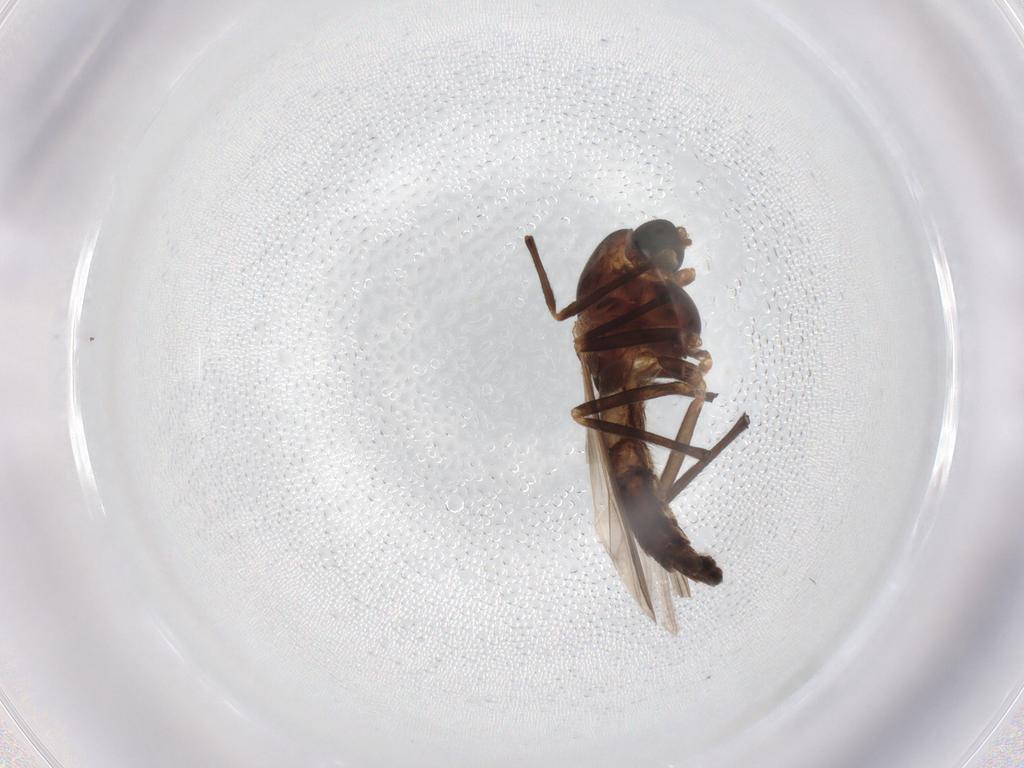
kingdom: Animalia
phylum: Arthropoda
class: Insecta
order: Diptera
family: Chironomidae
